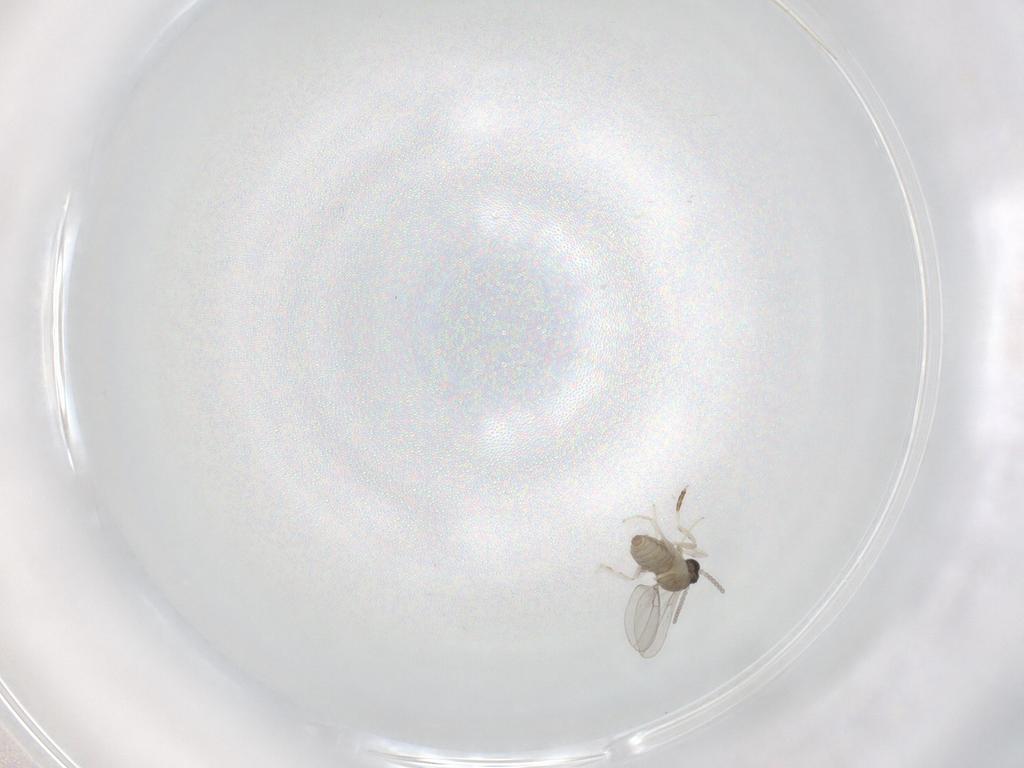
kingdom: Animalia
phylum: Arthropoda
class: Insecta
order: Diptera
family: Cecidomyiidae
